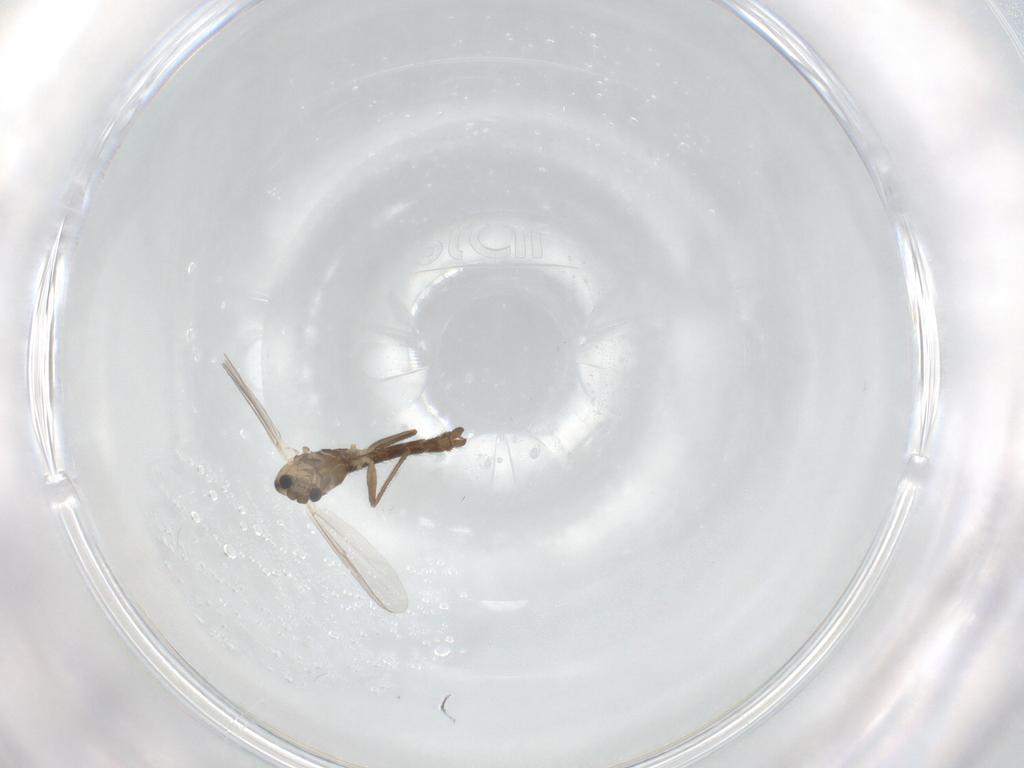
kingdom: Animalia
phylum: Arthropoda
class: Insecta
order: Diptera
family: Chironomidae
